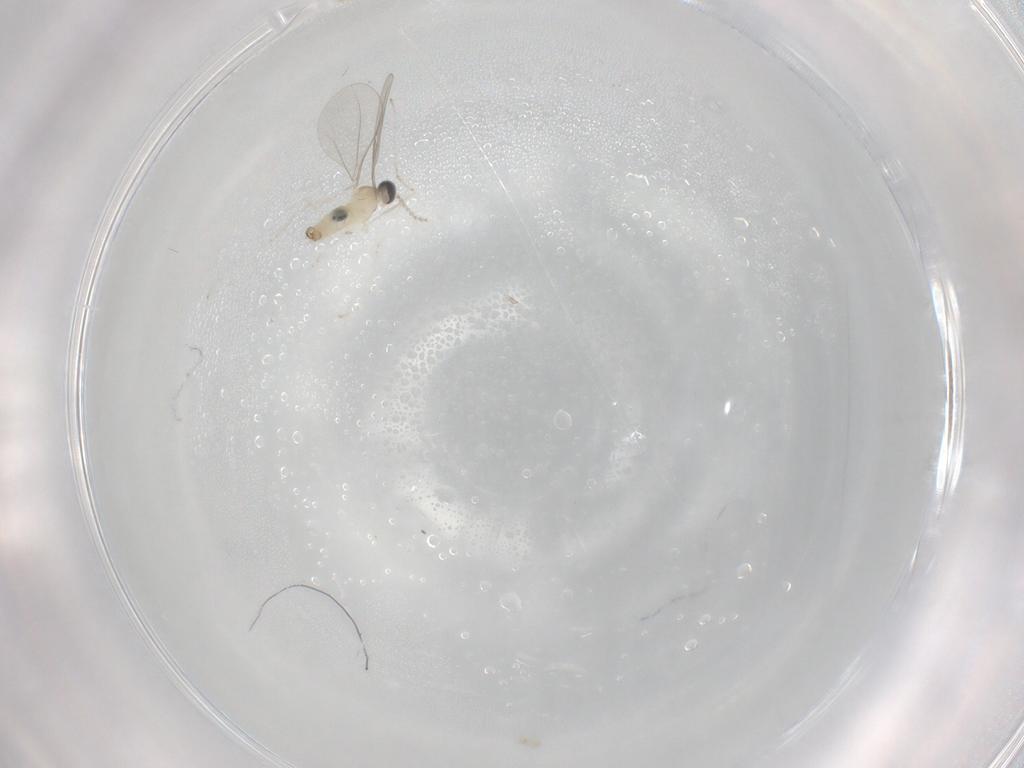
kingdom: Animalia
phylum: Arthropoda
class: Insecta
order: Diptera
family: Cecidomyiidae
